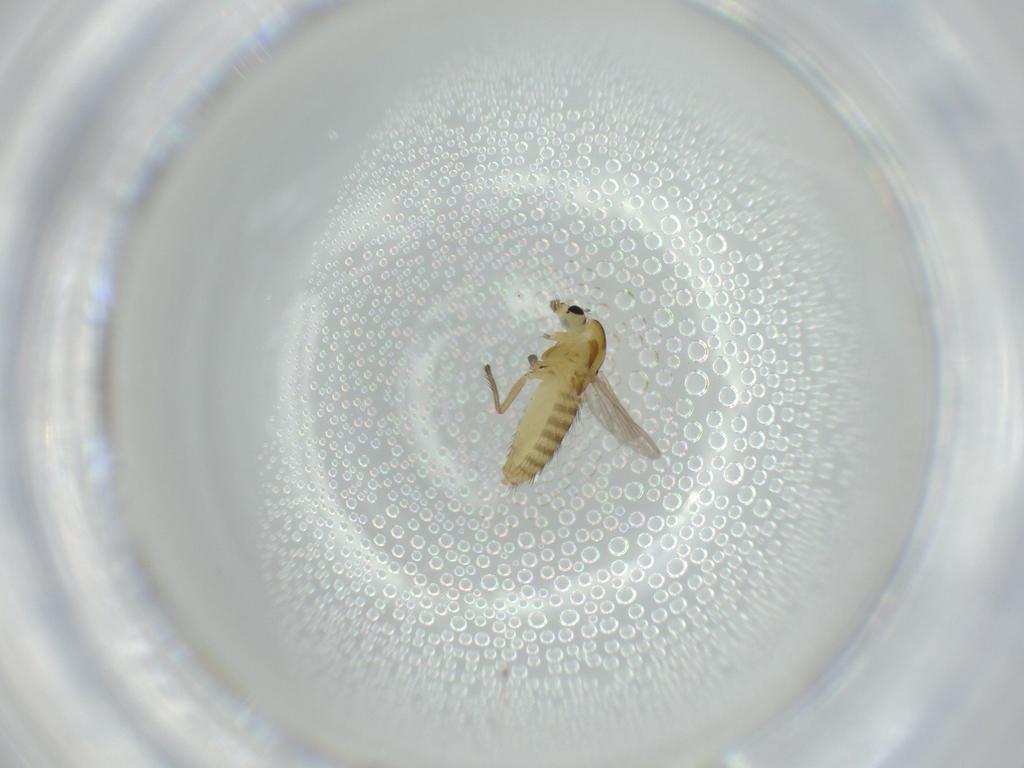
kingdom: Animalia
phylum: Arthropoda
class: Insecta
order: Diptera
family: Chironomidae
